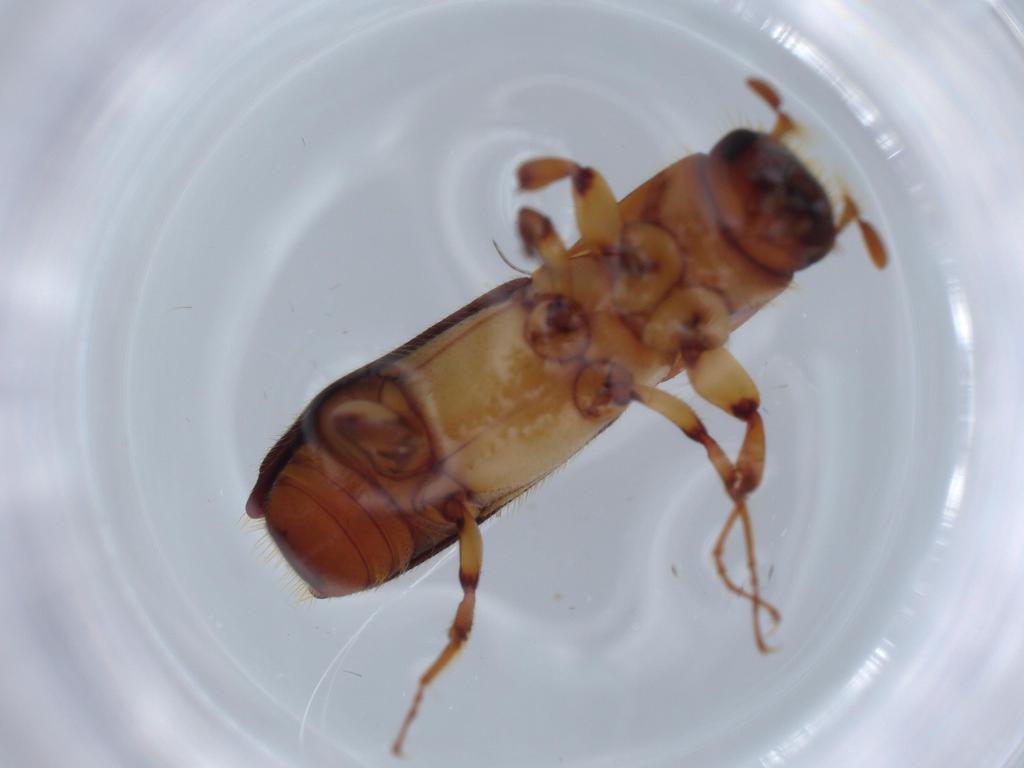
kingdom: Animalia
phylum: Arthropoda
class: Insecta
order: Coleoptera
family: Curculionidae
